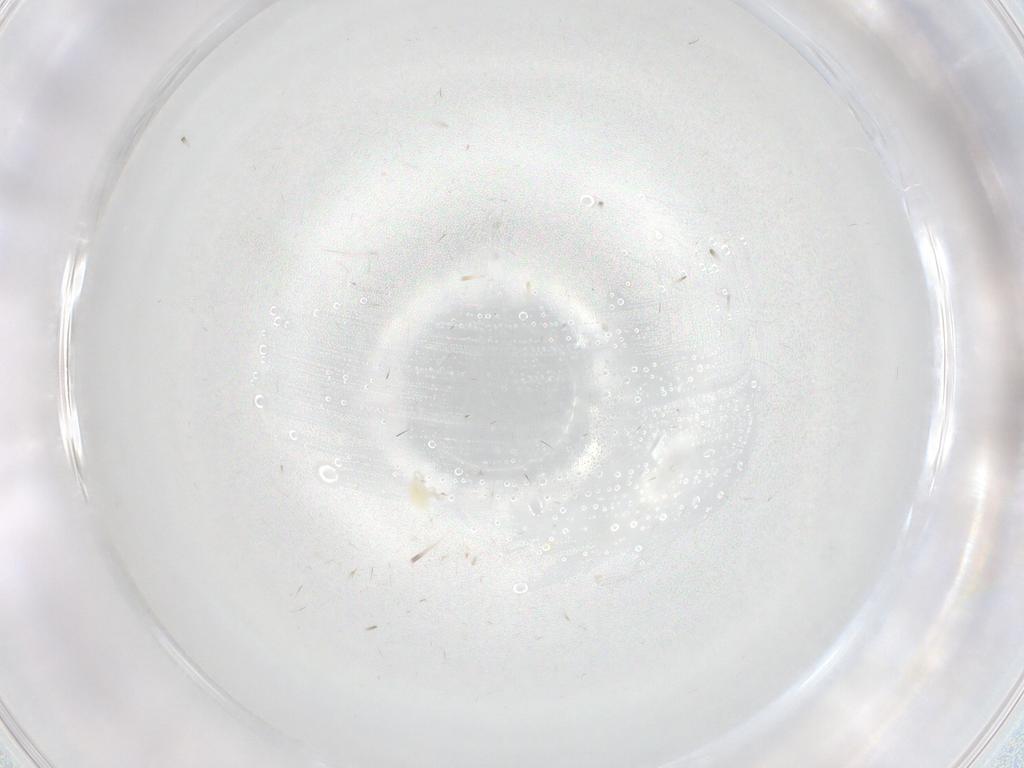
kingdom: Animalia
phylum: Arthropoda
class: Insecta
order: Diptera
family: Chironomidae
